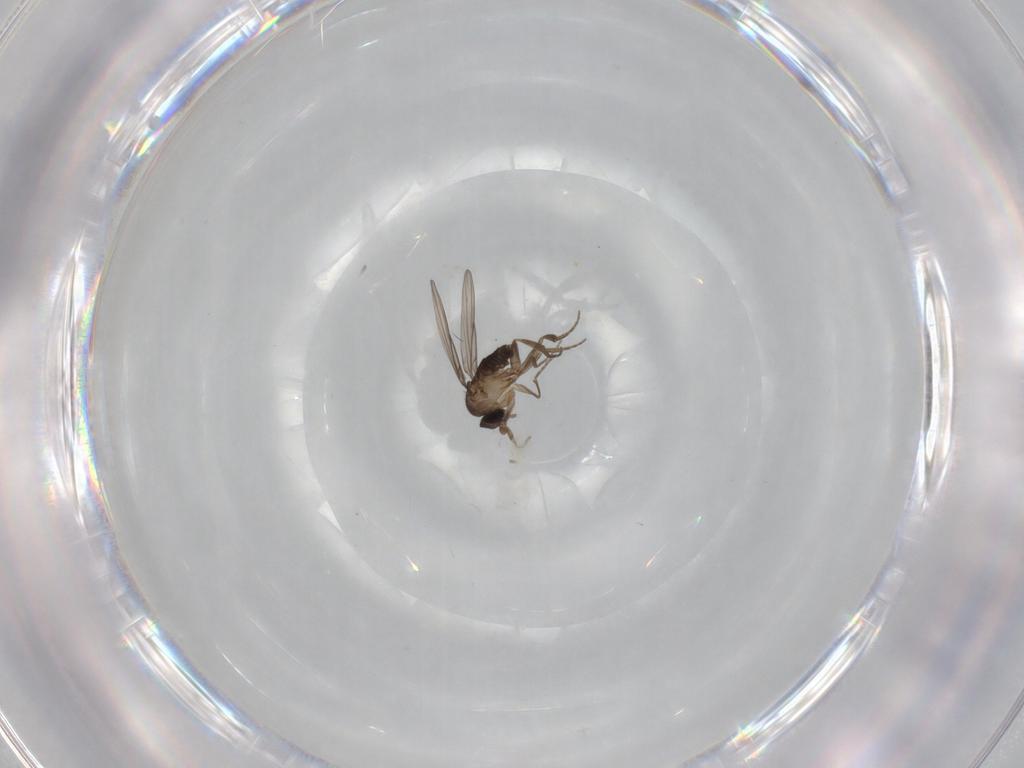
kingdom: Animalia
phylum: Arthropoda
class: Insecta
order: Diptera
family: Phoridae
